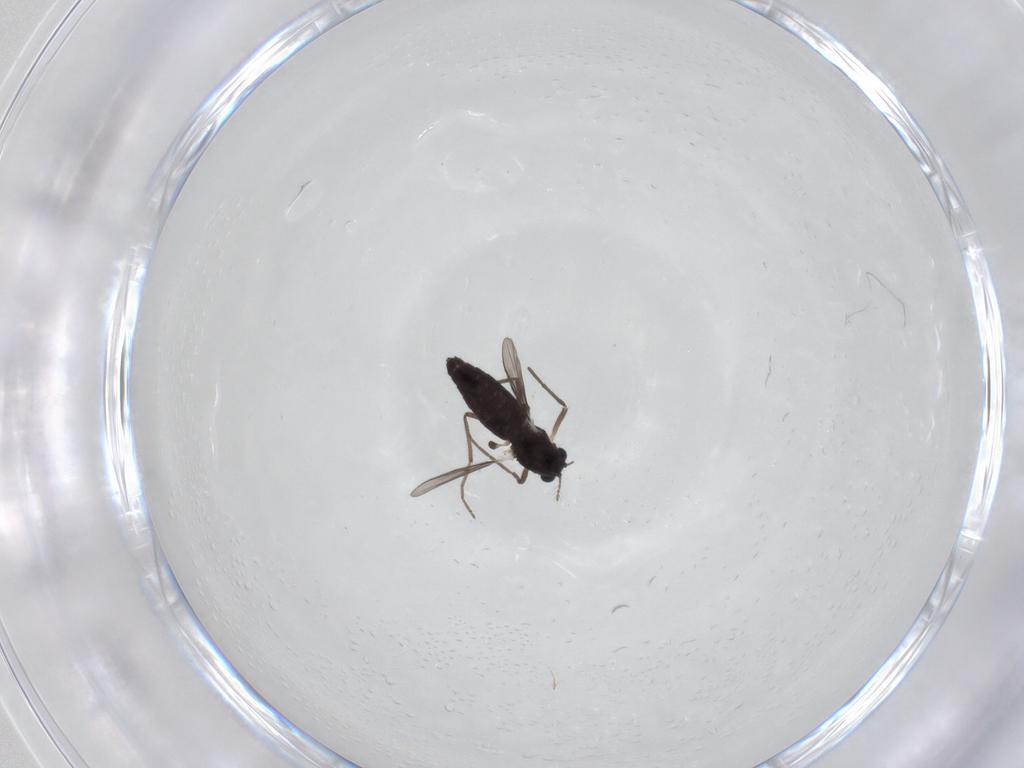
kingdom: Animalia
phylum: Arthropoda
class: Insecta
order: Diptera
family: Chironomidae
